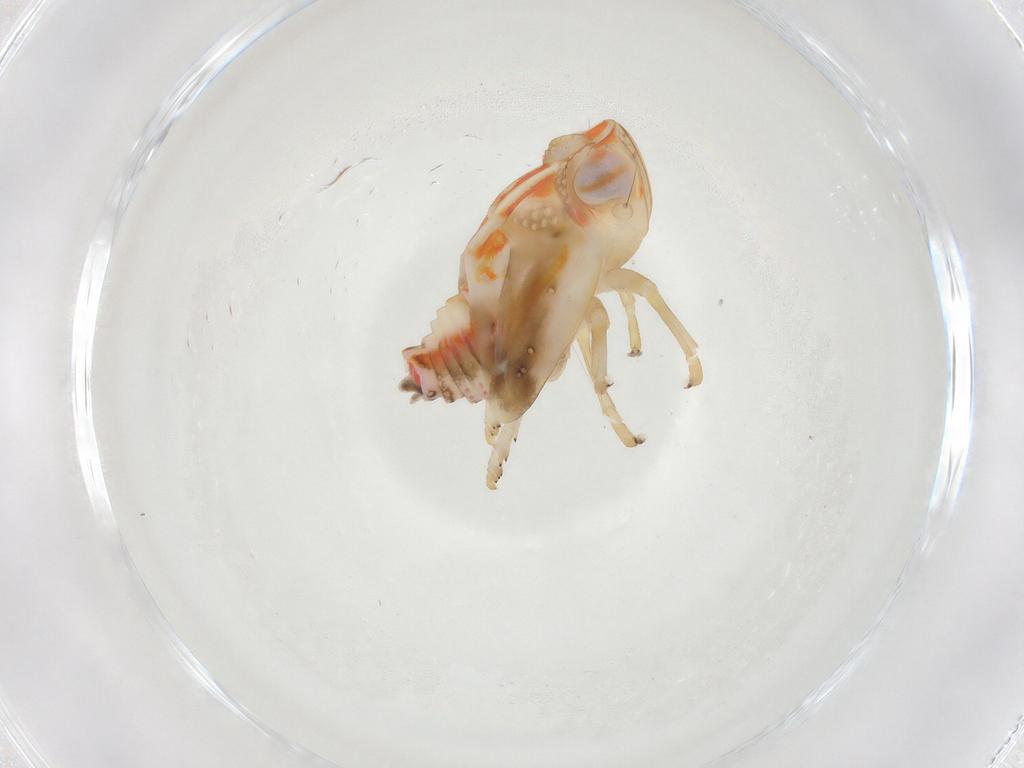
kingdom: Animalia
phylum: Arthropoda
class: Insecta
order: Hemiptera
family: Nogodinidae
